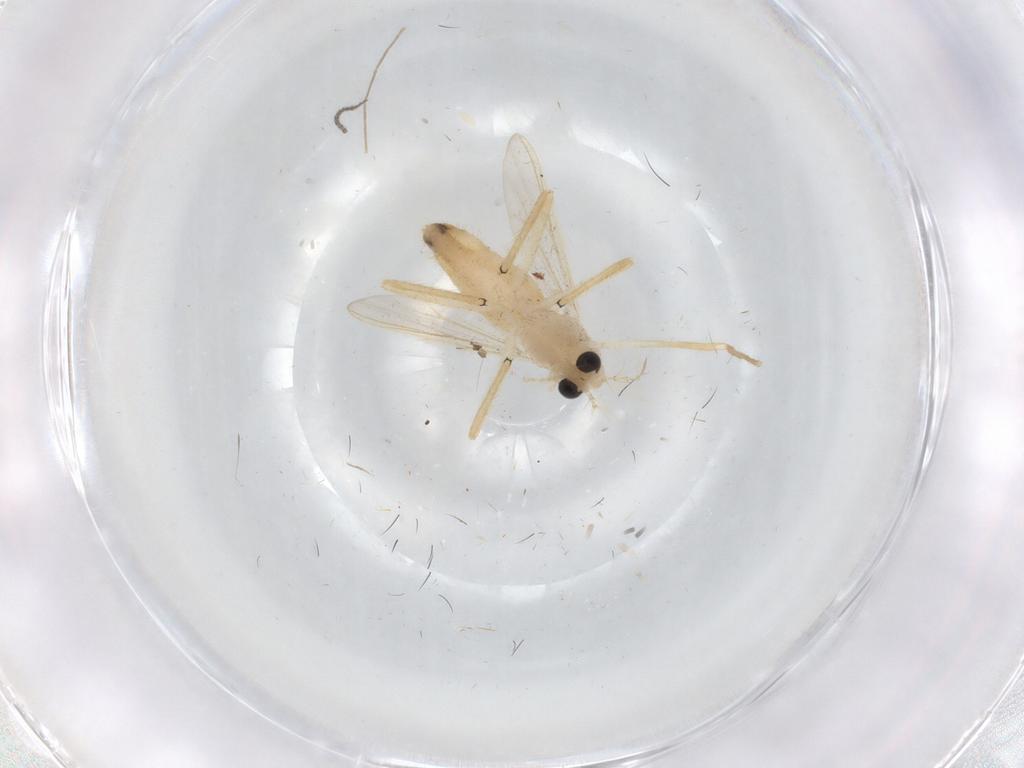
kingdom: Animalia
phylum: Arthropoda
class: Insecta
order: Diptera
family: Chironomidae
